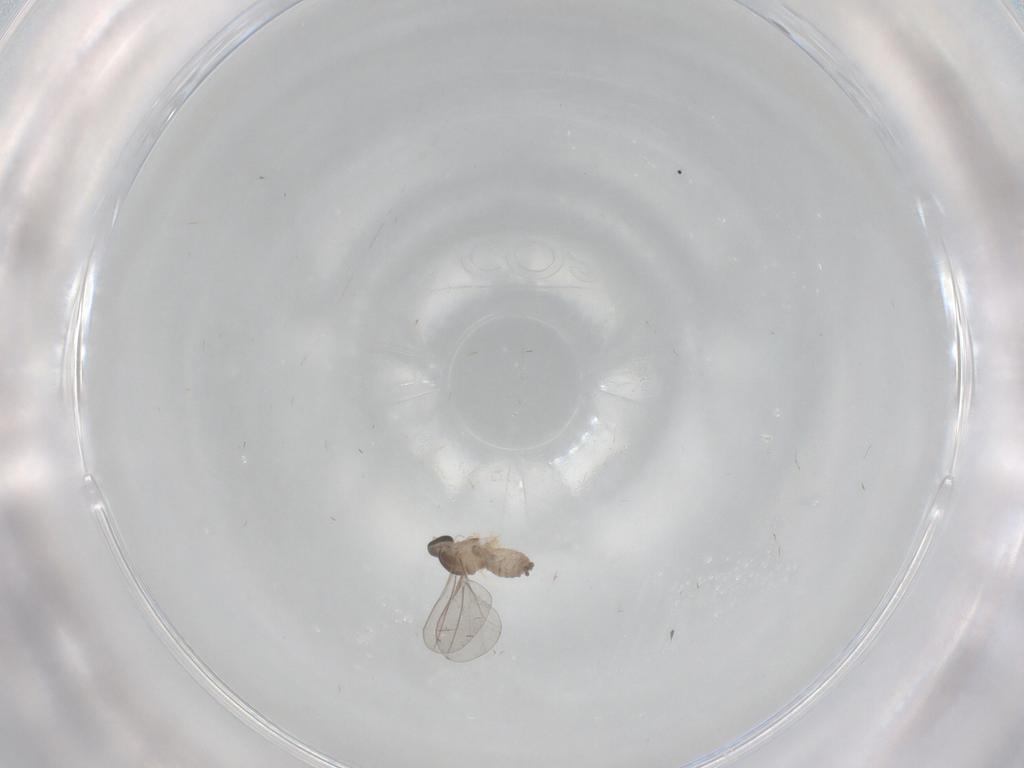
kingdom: Animalia
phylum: Arthropoda
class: Insecta
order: Diptera
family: Cecidomyiidae
